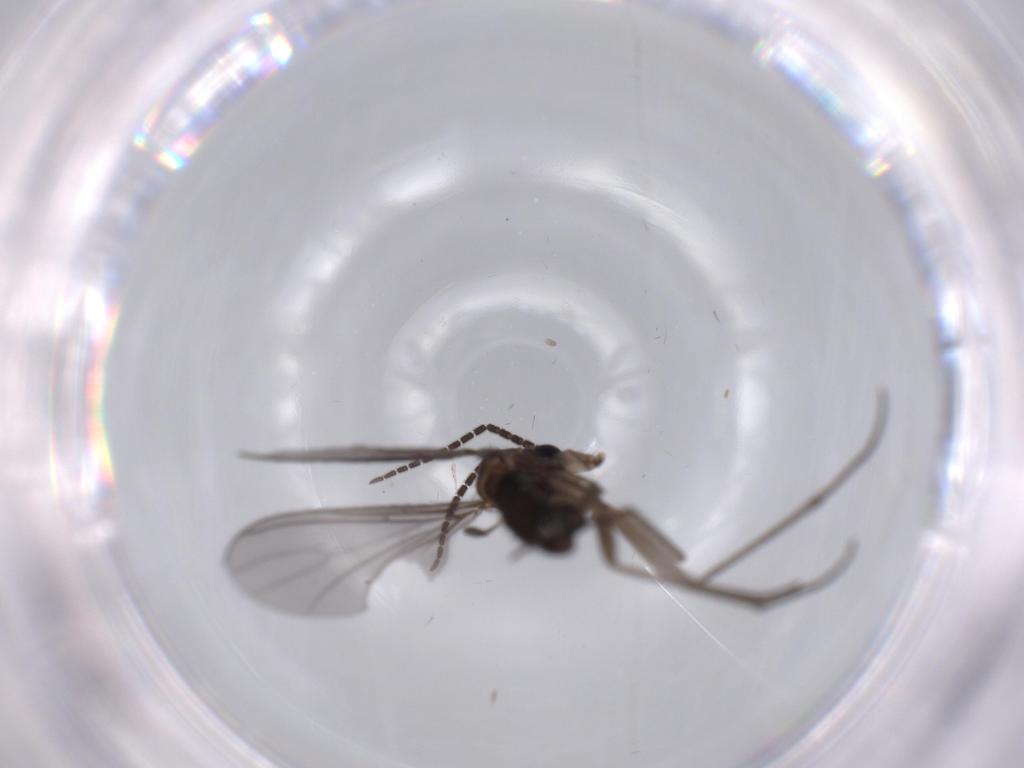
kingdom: Animalia
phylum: Arthropoda
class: Insecta
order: Diptera
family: Sciaridae
